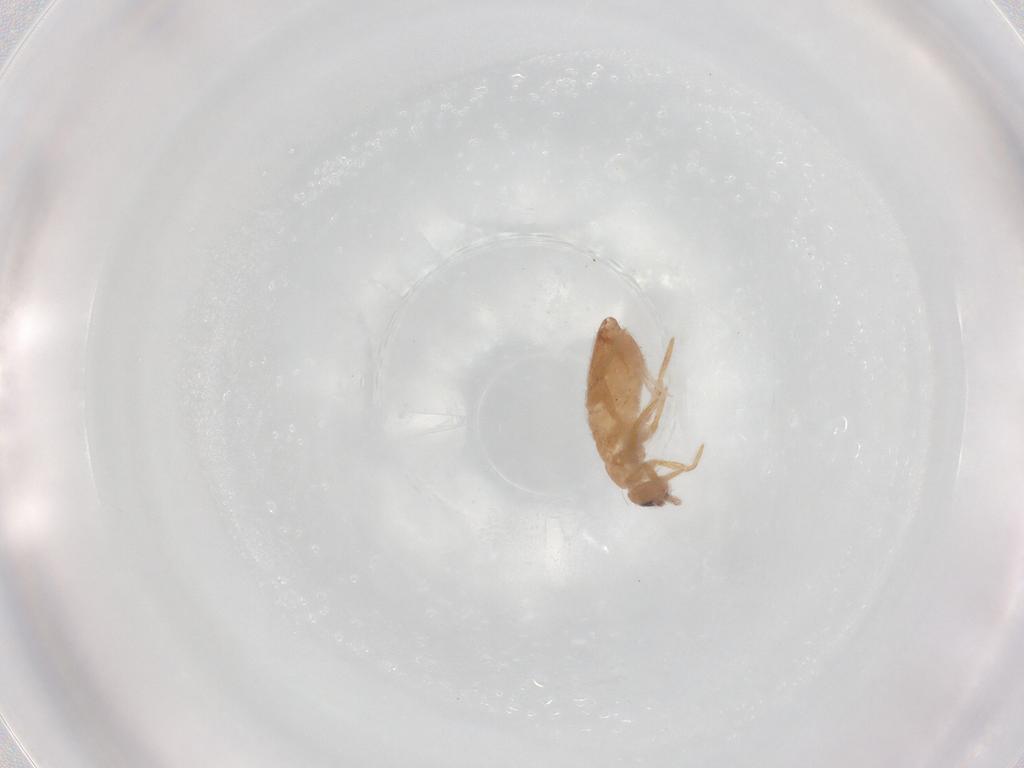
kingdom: Animalia
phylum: Arthropoda
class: Collembola
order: Entomobryomorpha
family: Entomobryidae
